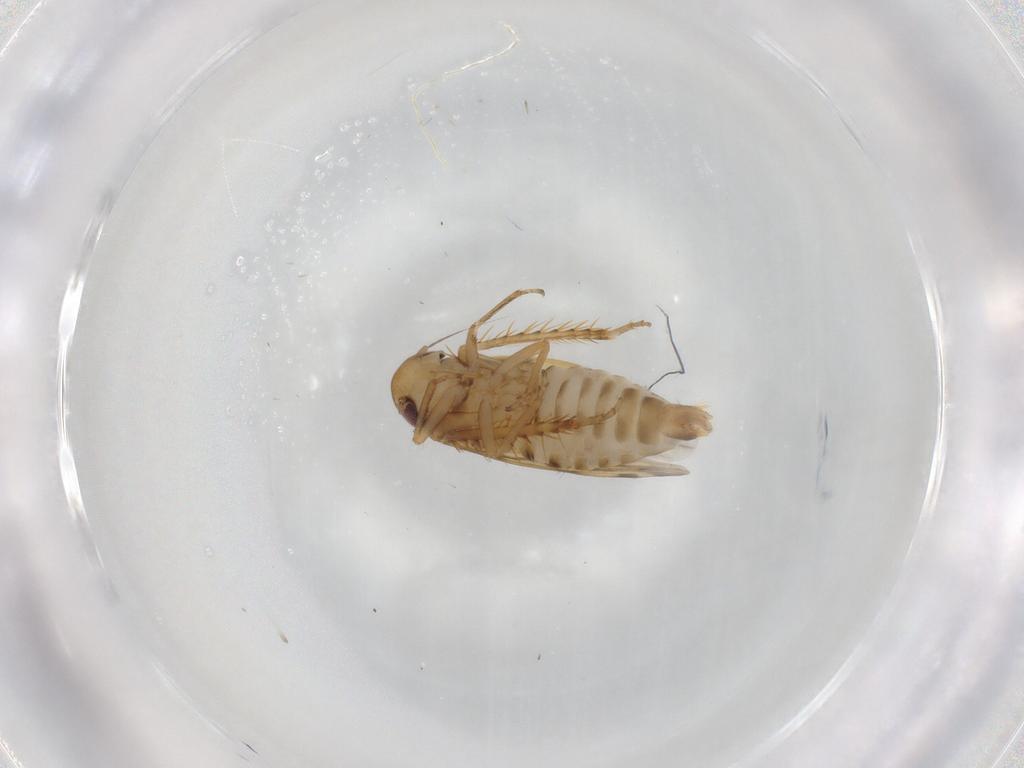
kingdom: Animalia
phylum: Arthropoda
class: Insecta
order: Hemiptera
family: Cicadellidae
